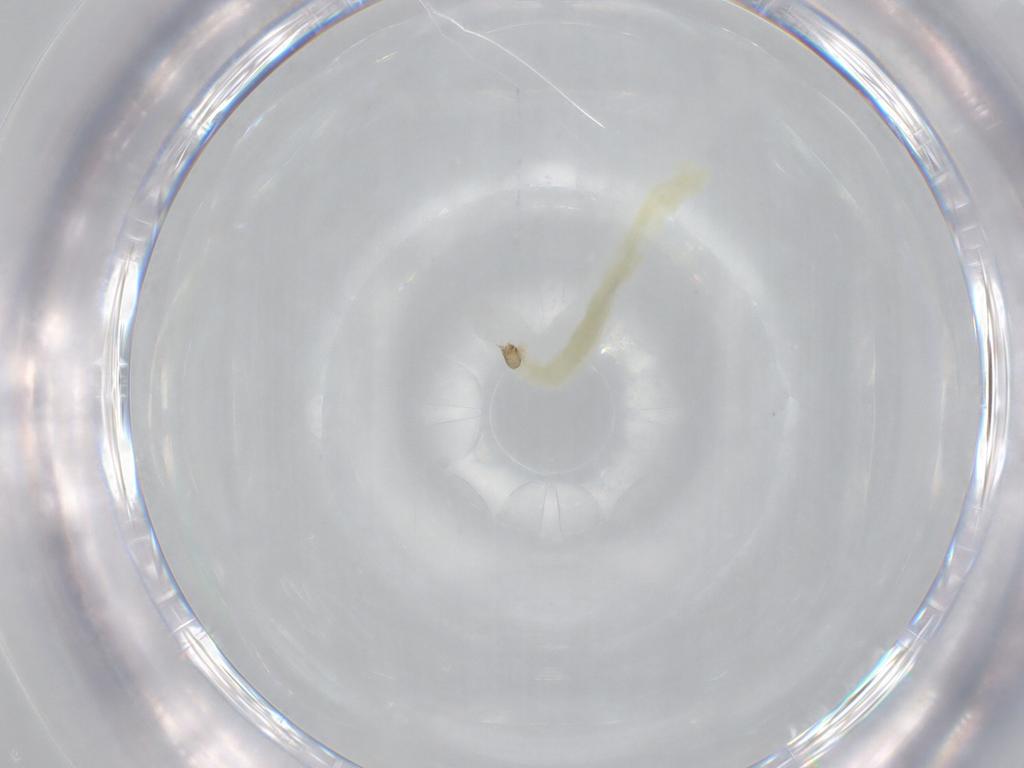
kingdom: Animalia
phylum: Arthropoda
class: Insecta
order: Diptera
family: Chironomidae
